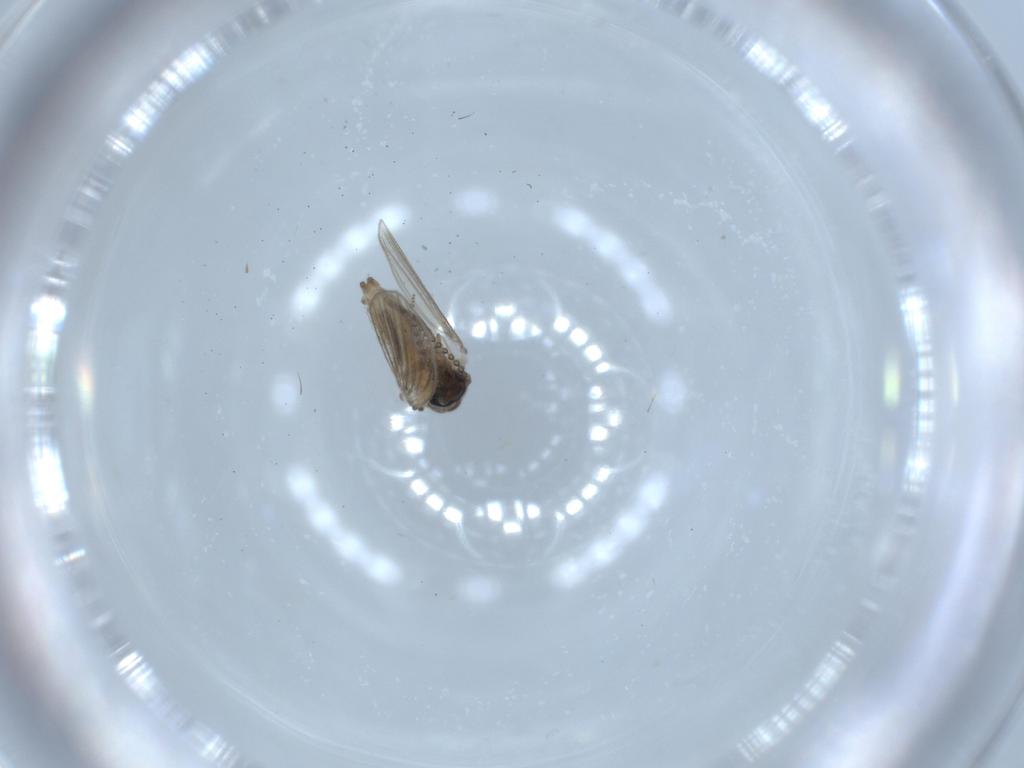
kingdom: Animalia
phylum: Arthropoda
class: Insecta
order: Diptera
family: Psychodidae
